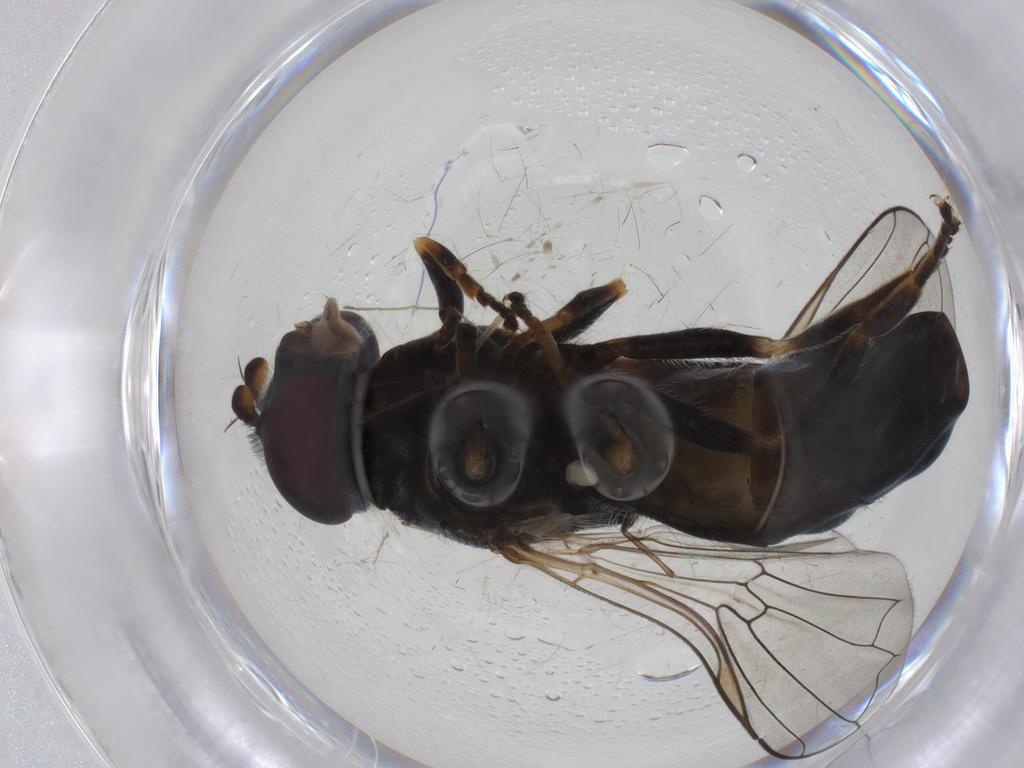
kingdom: Animalia
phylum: Arthropoda
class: Insecta
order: Diptera
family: Syrphidae
